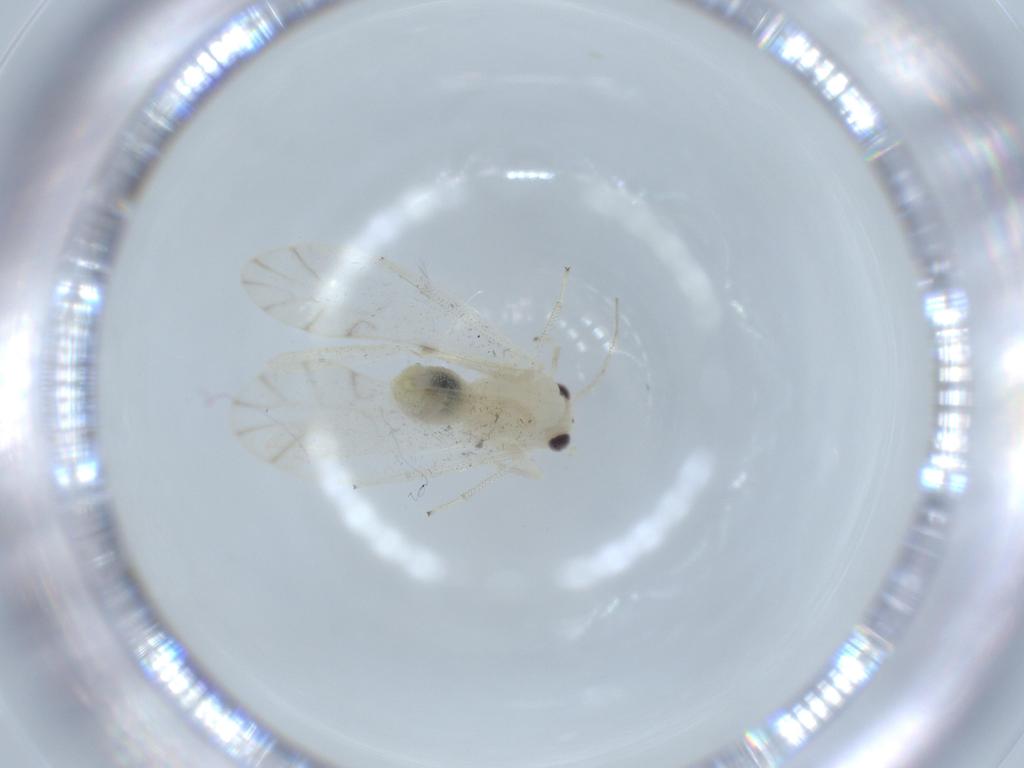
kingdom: Animalia
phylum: Arthropoda
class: Insecta
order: Psocodea
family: Caeciliusidae
